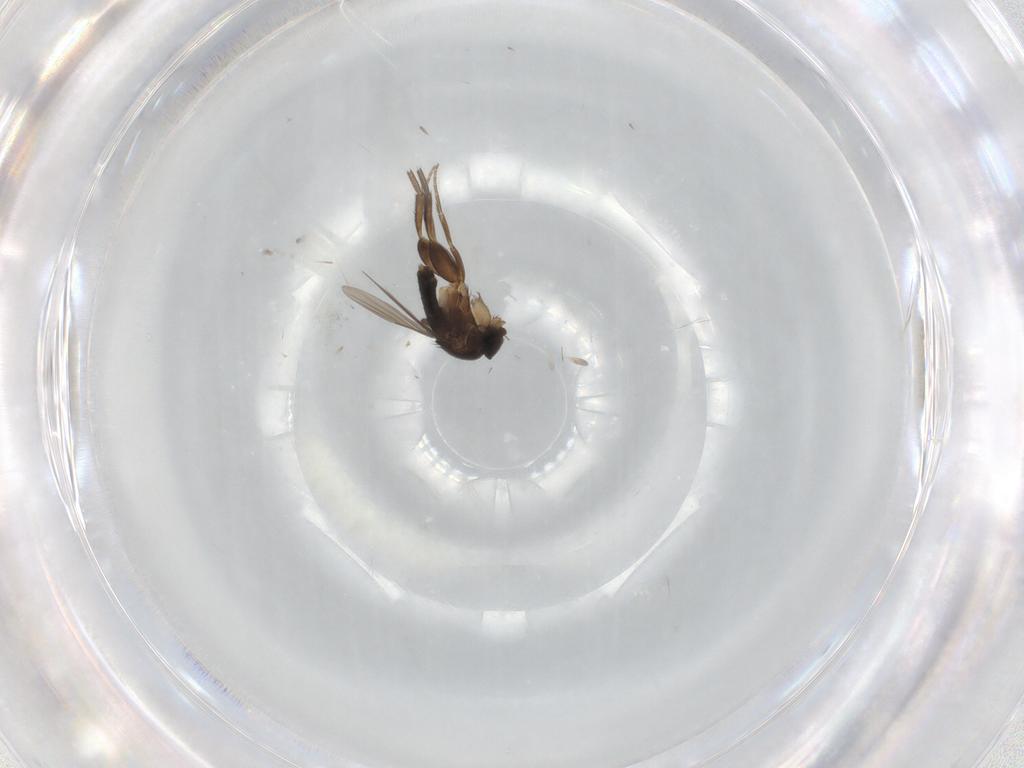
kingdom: Animalia
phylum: Arthropoda
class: Insecta
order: Diptera
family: Phoridae
